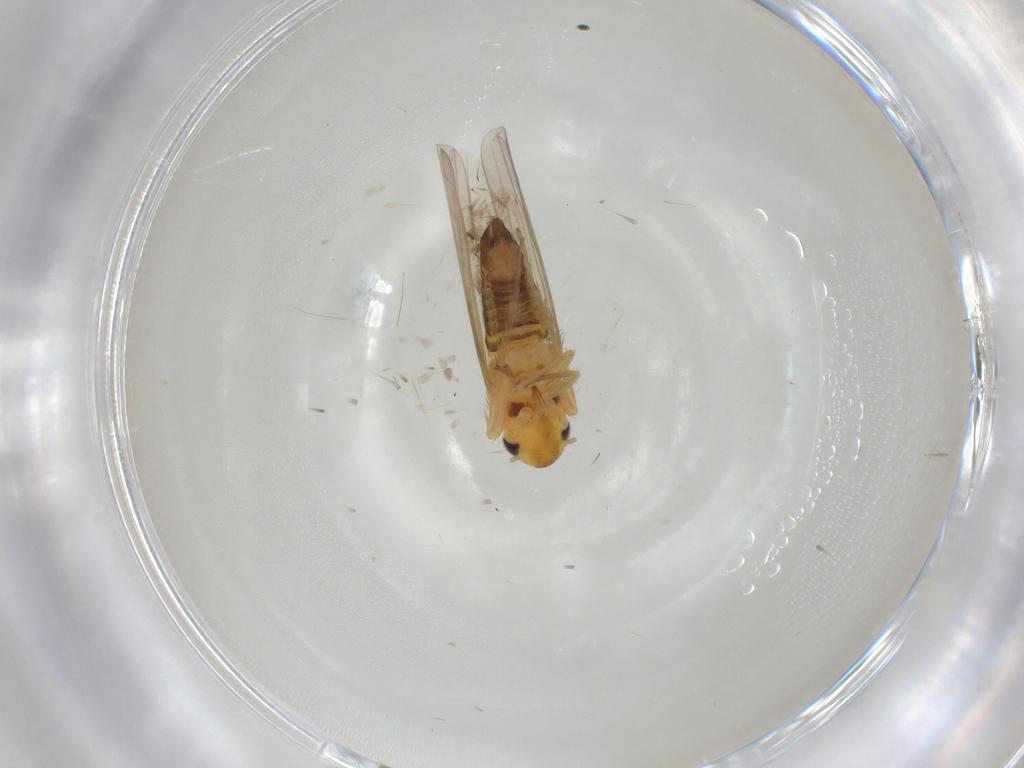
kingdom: Animalia
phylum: Arthropoda
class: Insecta
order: Hemiptera
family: Cicadellidae
